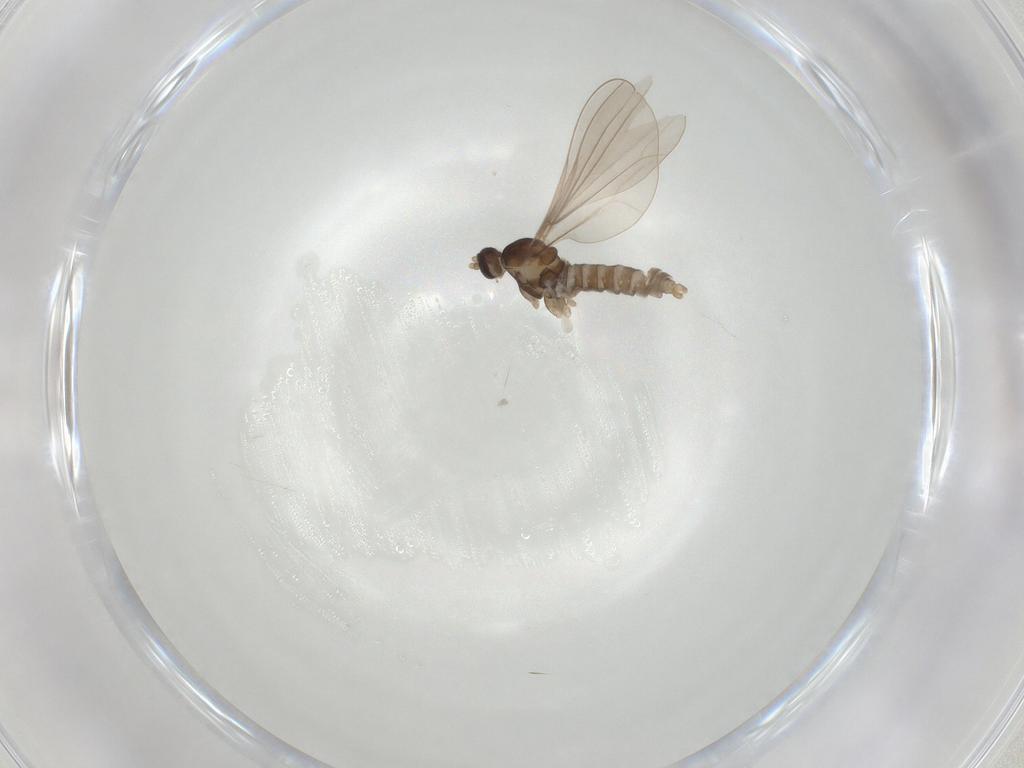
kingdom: Animalia
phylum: Arthropoda
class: Insecta
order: Diptera
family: Cecidomyiidae
